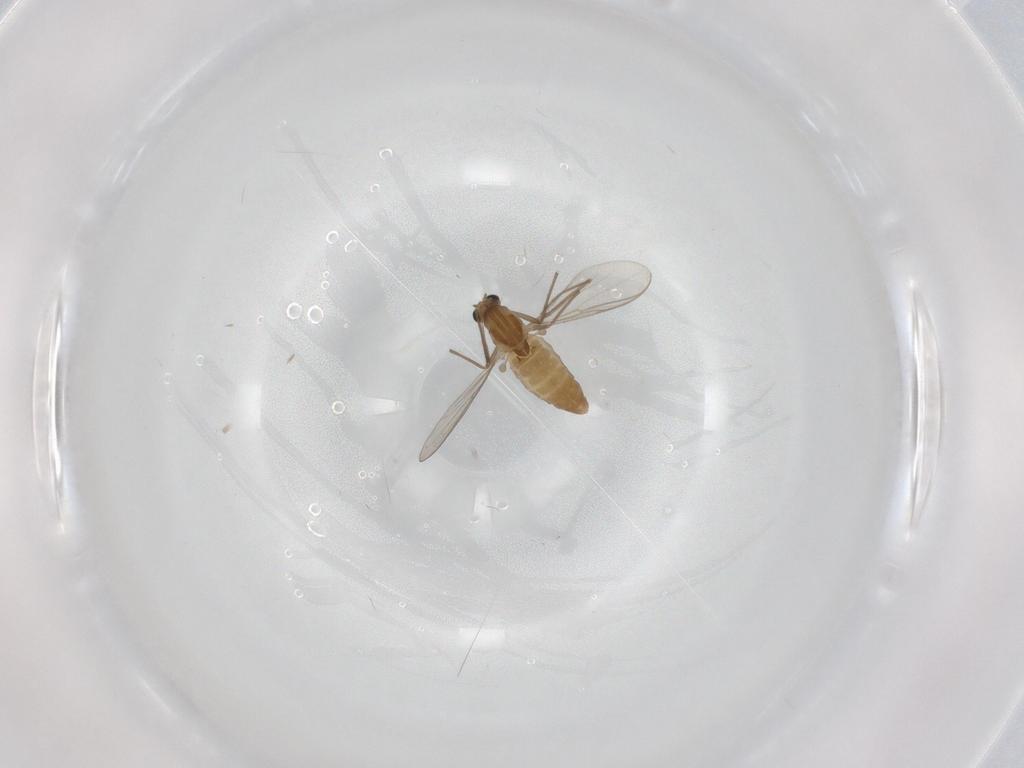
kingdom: Animalia
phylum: Arthropoda
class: Insecta
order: Diptera
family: Chironomidae
